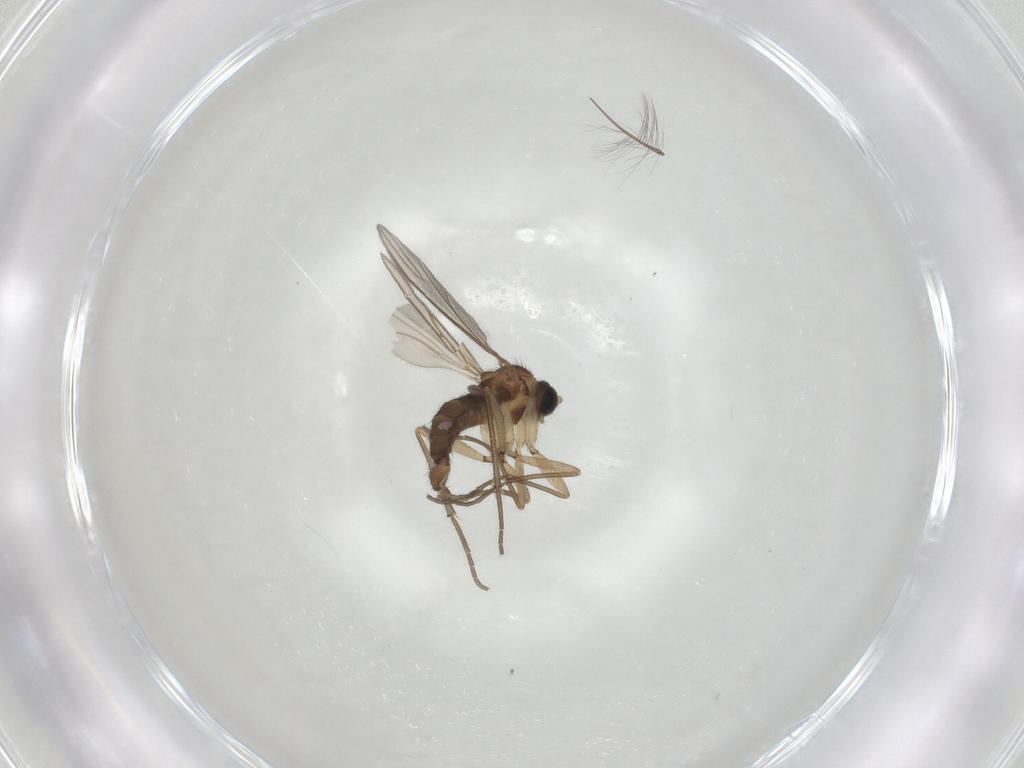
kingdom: Animalia
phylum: Arthropoda
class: Insecta
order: Diptera
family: Sciaridae
